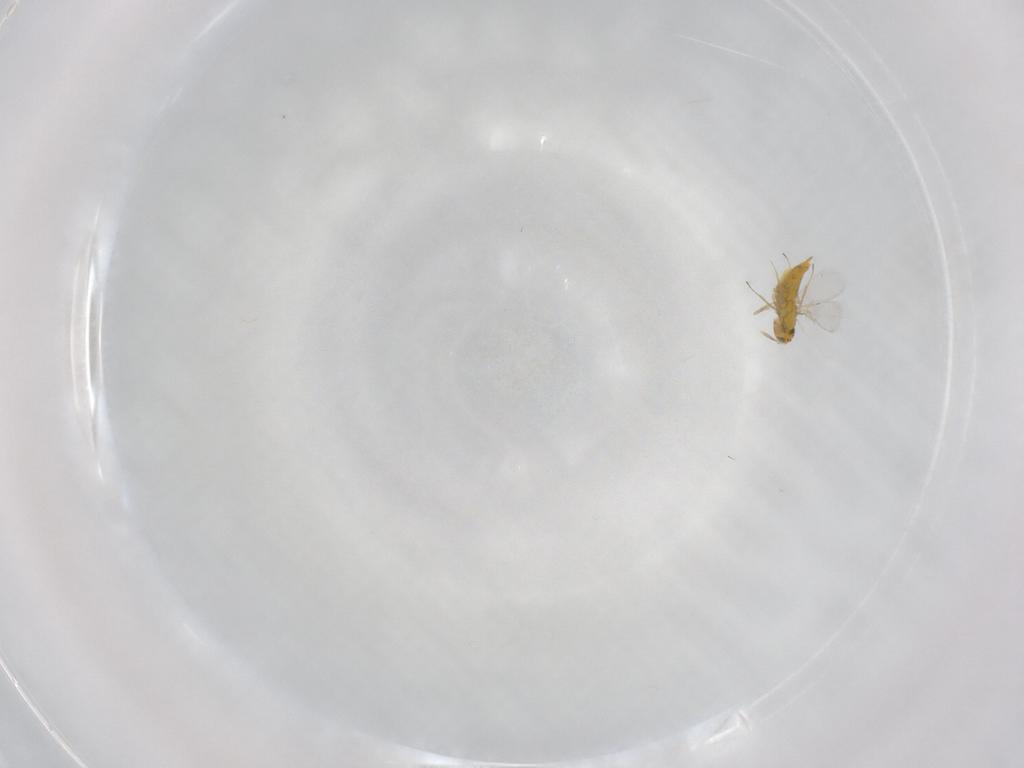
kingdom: Animalia
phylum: Arthropoda
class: Insecta
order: Hymenoptera
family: Aphelinidae
